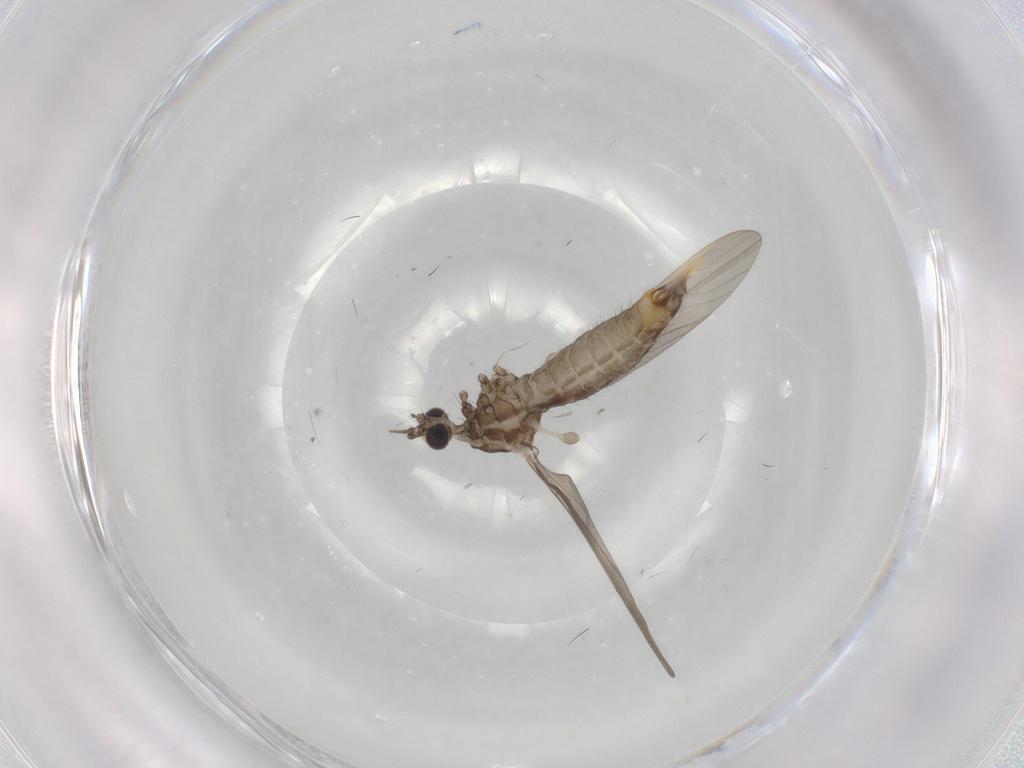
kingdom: Animalia
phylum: Arthropoda
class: Insecta
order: Diptera
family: Limoniidae
